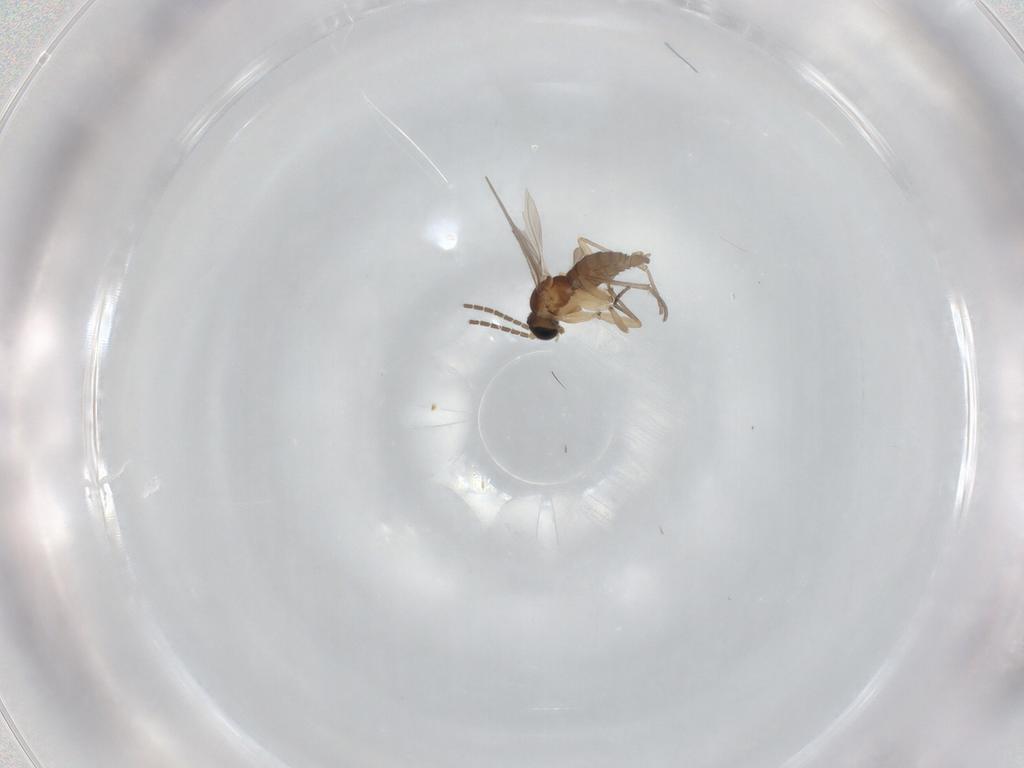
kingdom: Animalia
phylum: Arthropoda
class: Insecta
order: Diptera
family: Sciaridae
